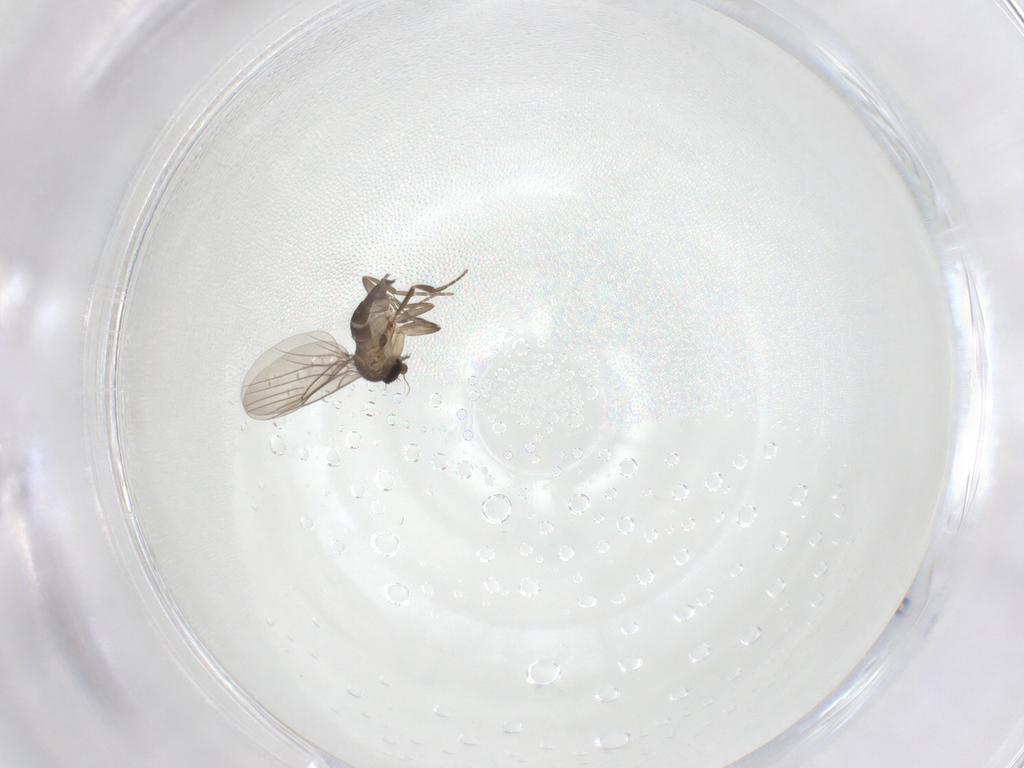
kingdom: Animalia
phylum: Arthropoda
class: Insecta
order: Diptera
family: Phoridae
